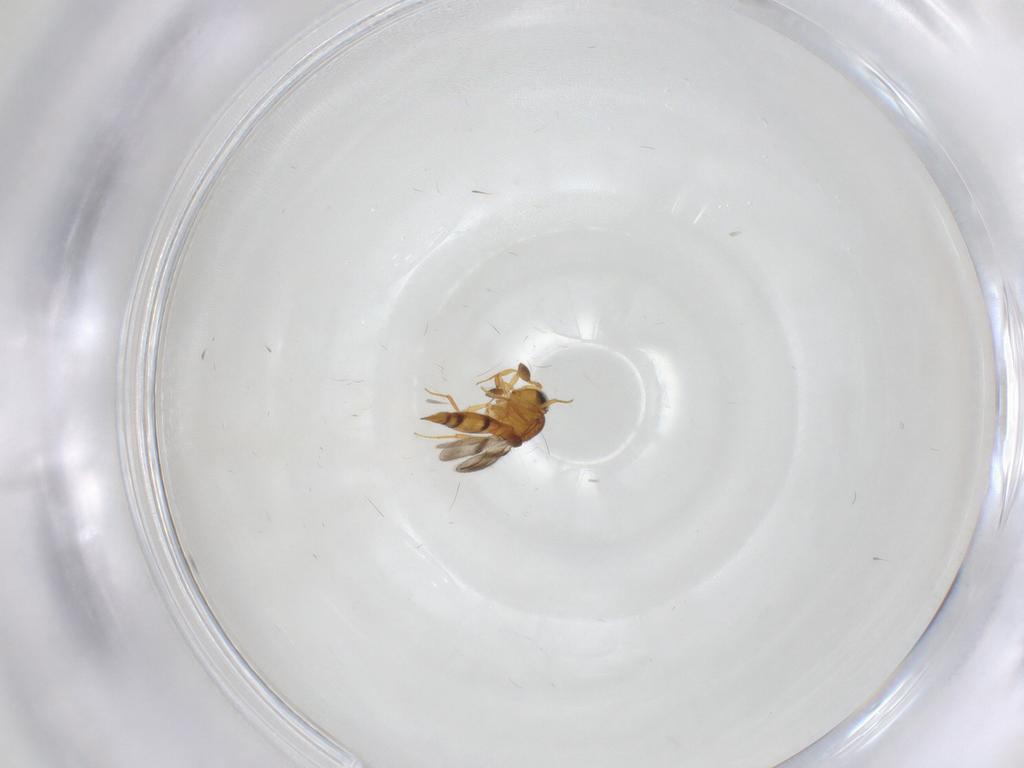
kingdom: Animalia
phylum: Arthropoda
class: Insecta
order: Hymenoptera
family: Scelionidae
